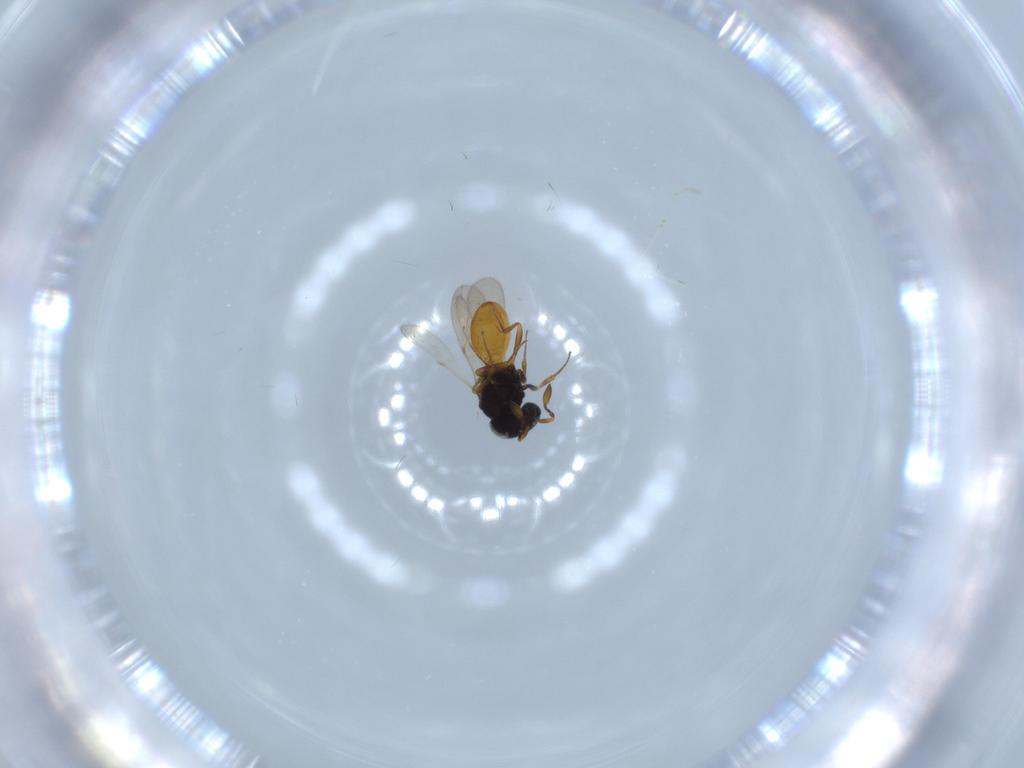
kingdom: Animalia
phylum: Arthropoda
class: Insecta
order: Hymenoptera
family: Scelionidae
